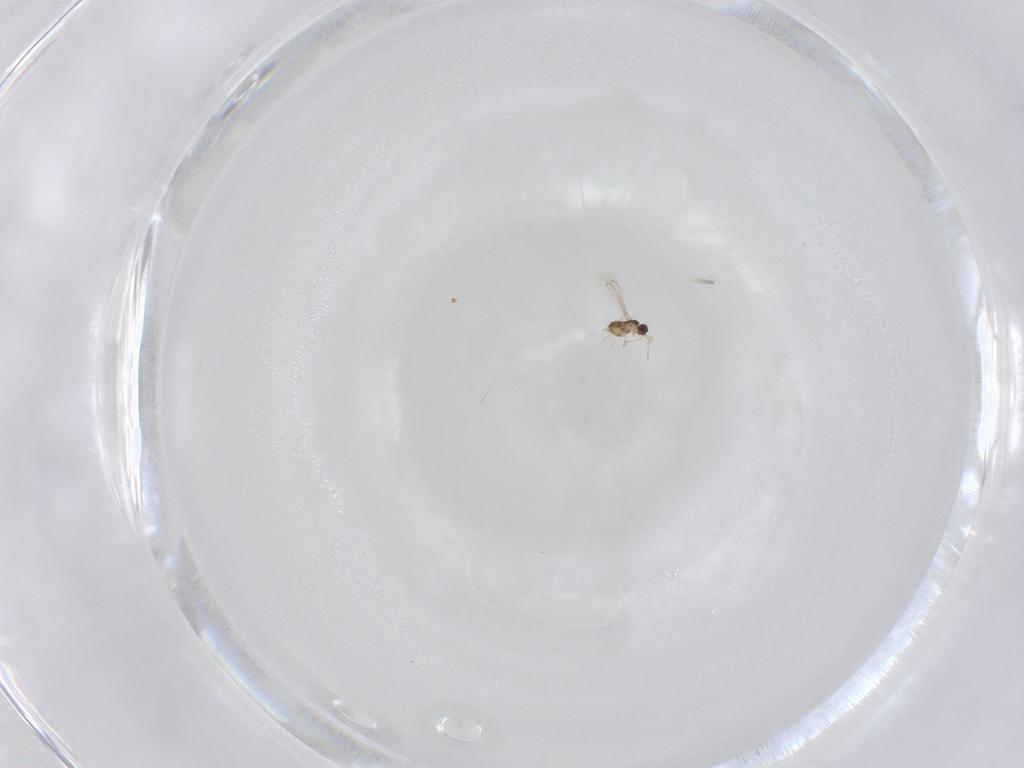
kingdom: Animalia
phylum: Arthropoda
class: Insecta
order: Hymenoptera
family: Mymaridae
